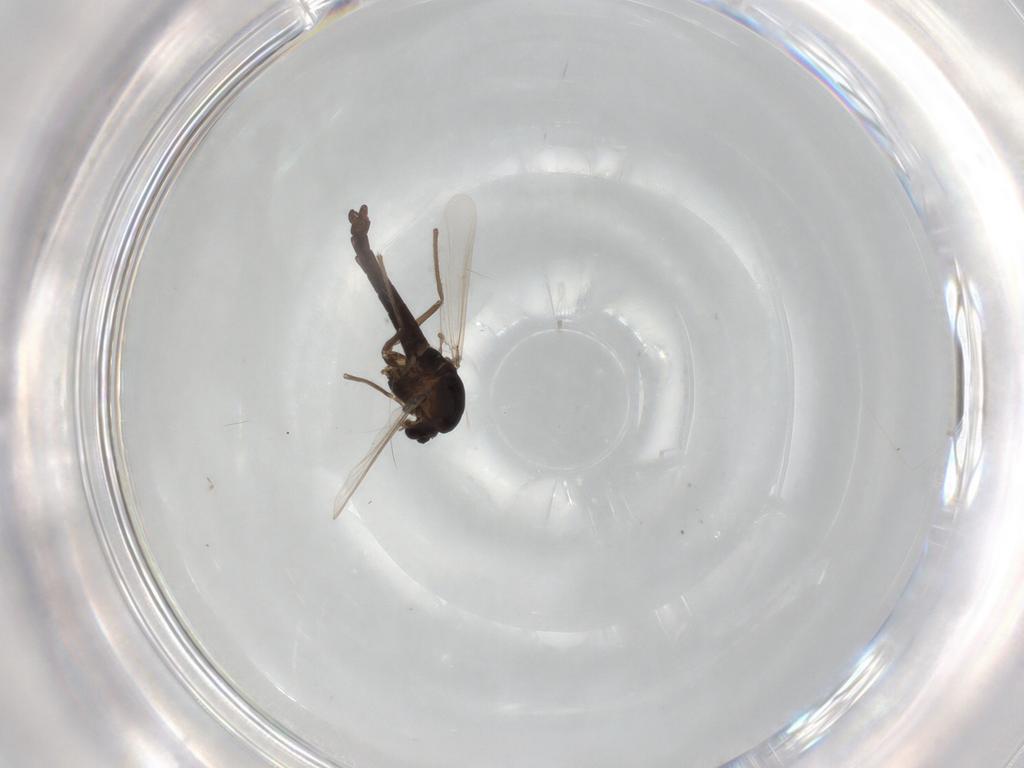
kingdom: Animalia
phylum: Arthropoda
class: Insecta
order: Diptera
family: Chironomidae
